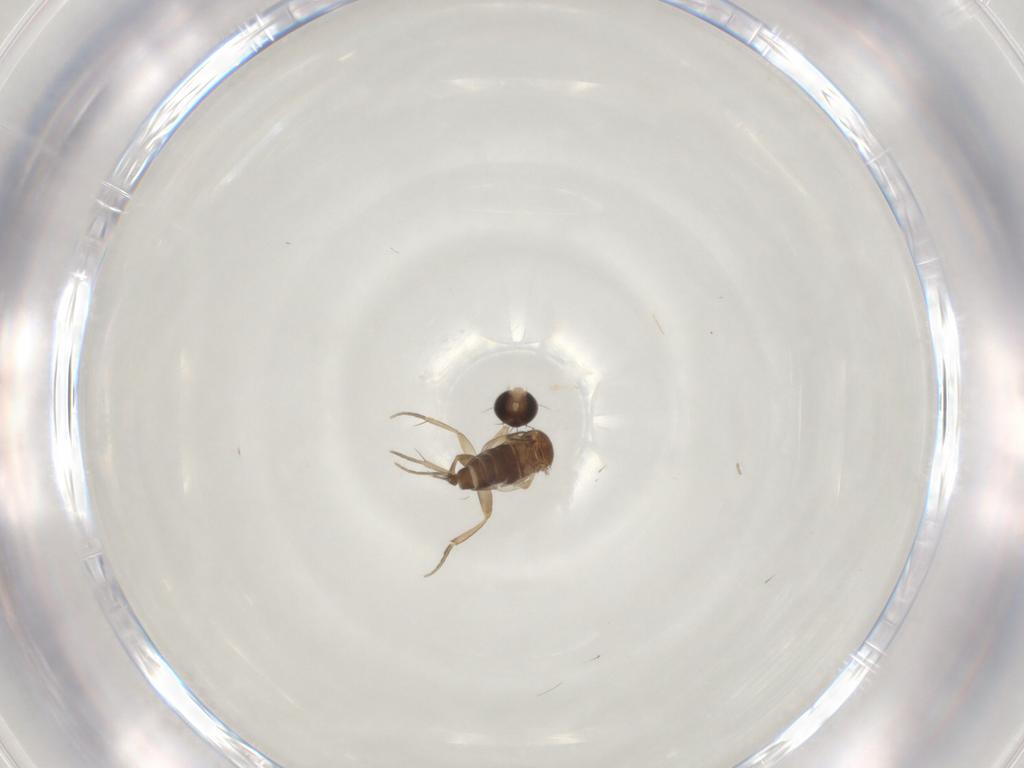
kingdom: Animalia
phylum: Arthropoda
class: Insecta
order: Diptera
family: Phoridae
